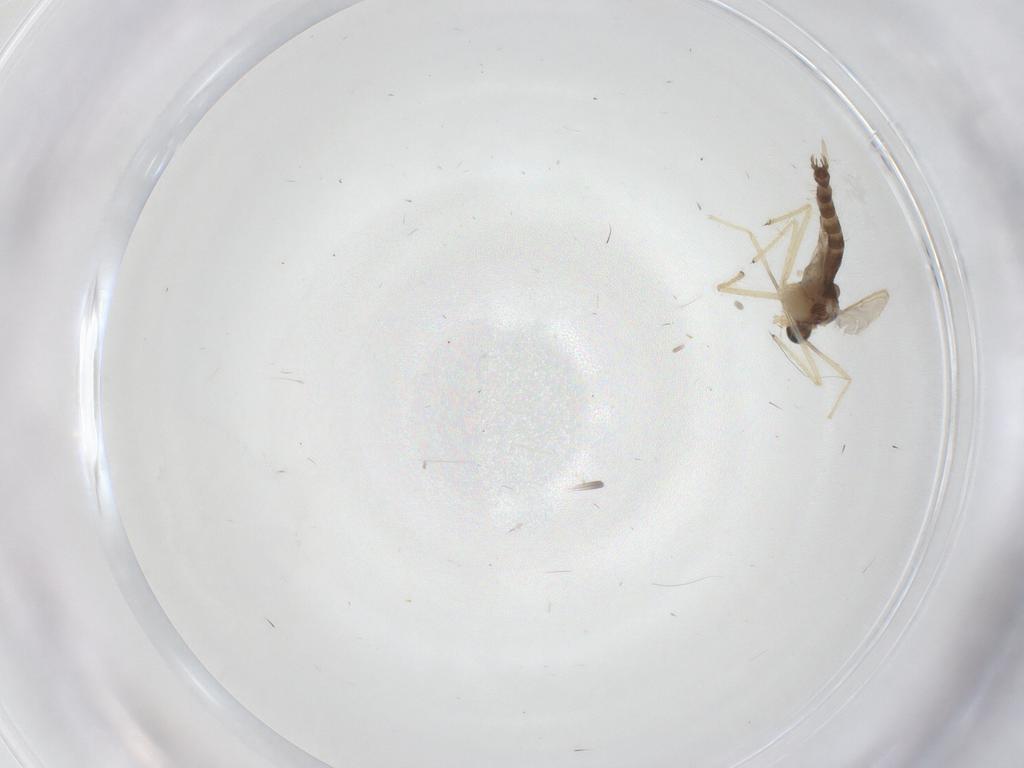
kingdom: Animalia
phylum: Arthropoda
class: Insecta
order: Diptera
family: Chironomidae
